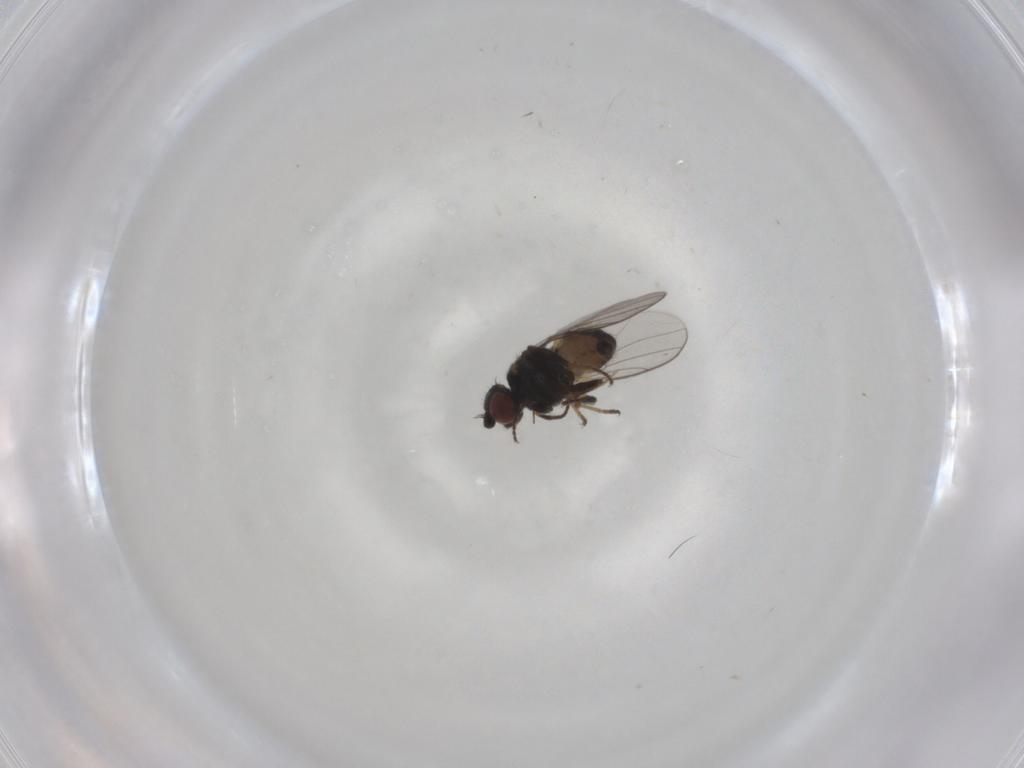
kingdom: Animalia
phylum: Arthropoda
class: Insecta
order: Diptera
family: Chloropidae
